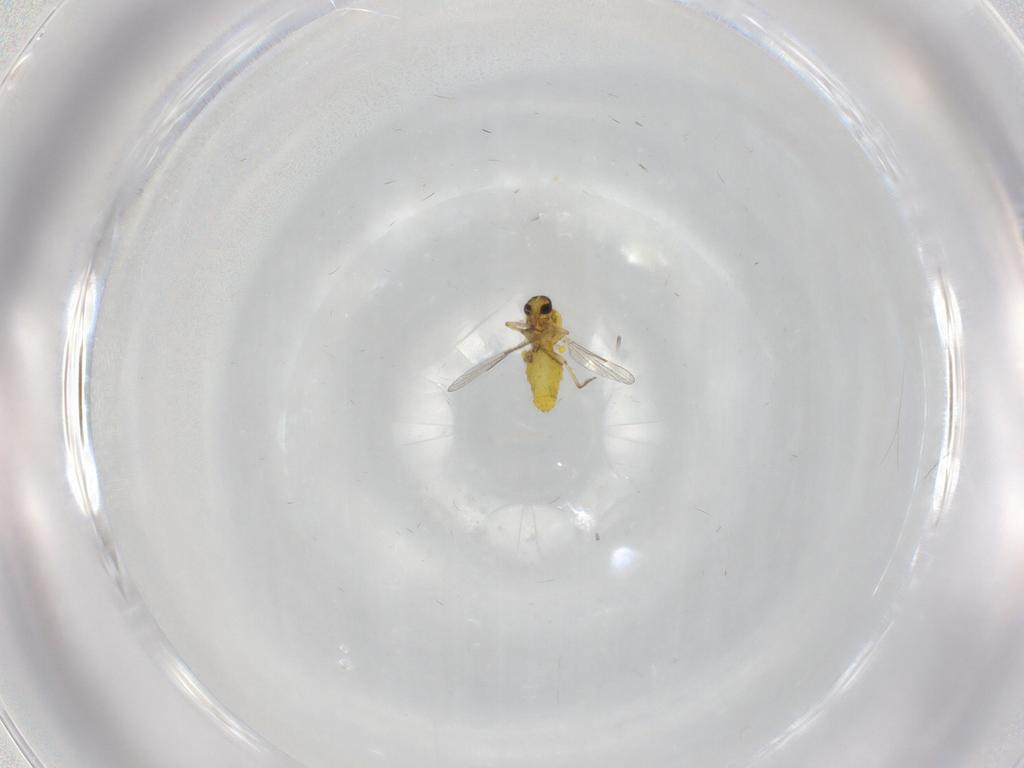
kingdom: Animalia
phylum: Arthropoda
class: Insecta
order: Diptera
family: Ceratopogonidae
